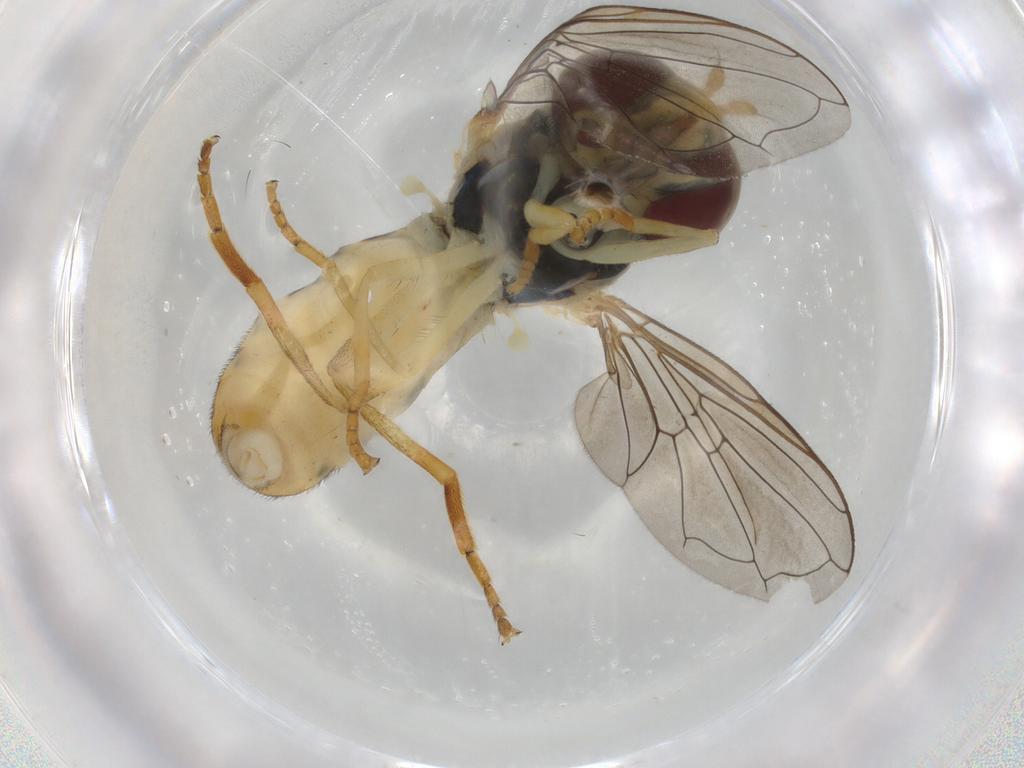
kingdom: Animalia
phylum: Arthropoda
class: Insecta
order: Diptera
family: Syrphidae
